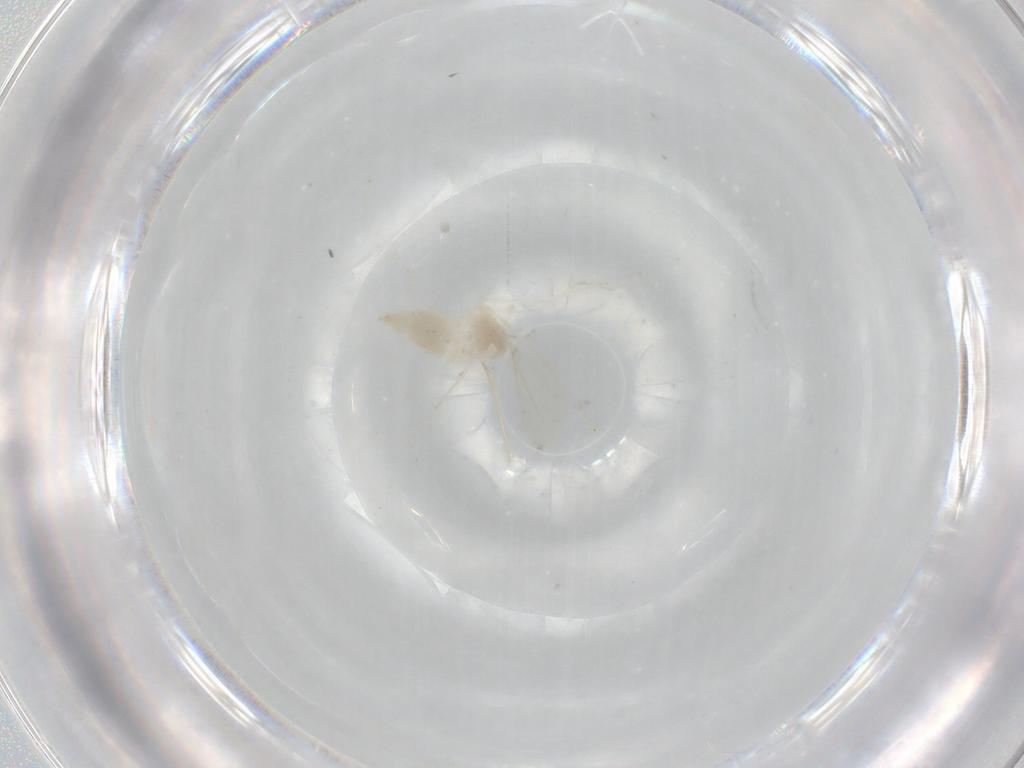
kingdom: Animalia
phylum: Arthropoda
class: Insecta
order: Diptera
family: Cecidomyiidae
